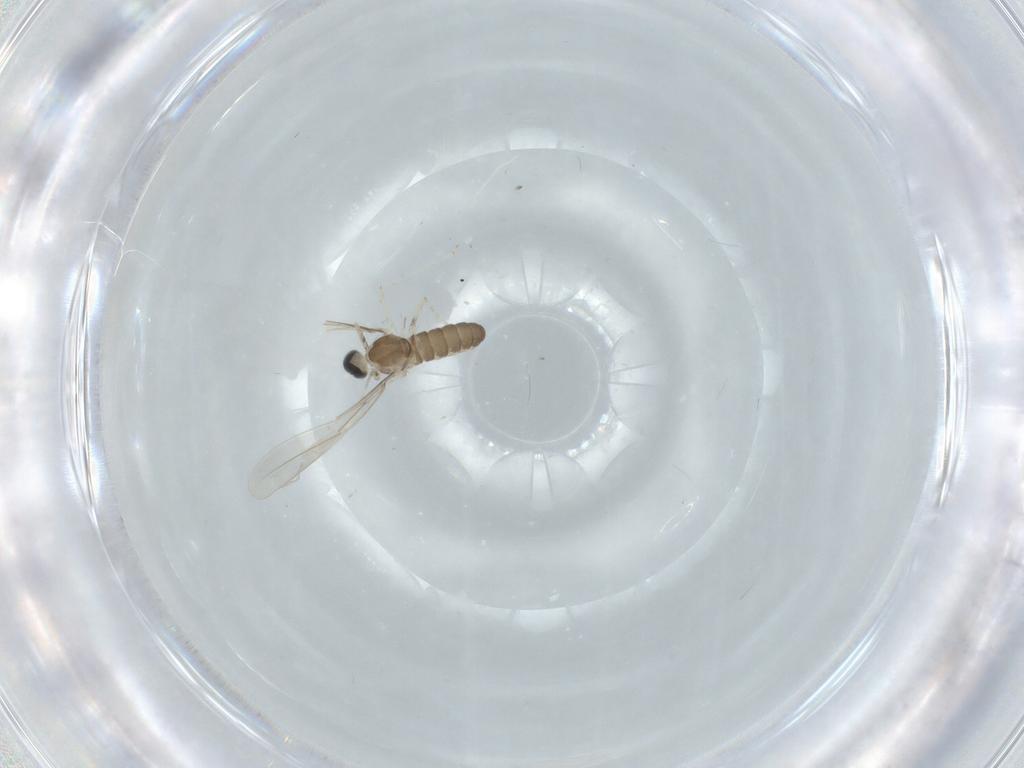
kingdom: Animalia
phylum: Arthropoda
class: Insecta
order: Diptera
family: Cecidomyiidae
